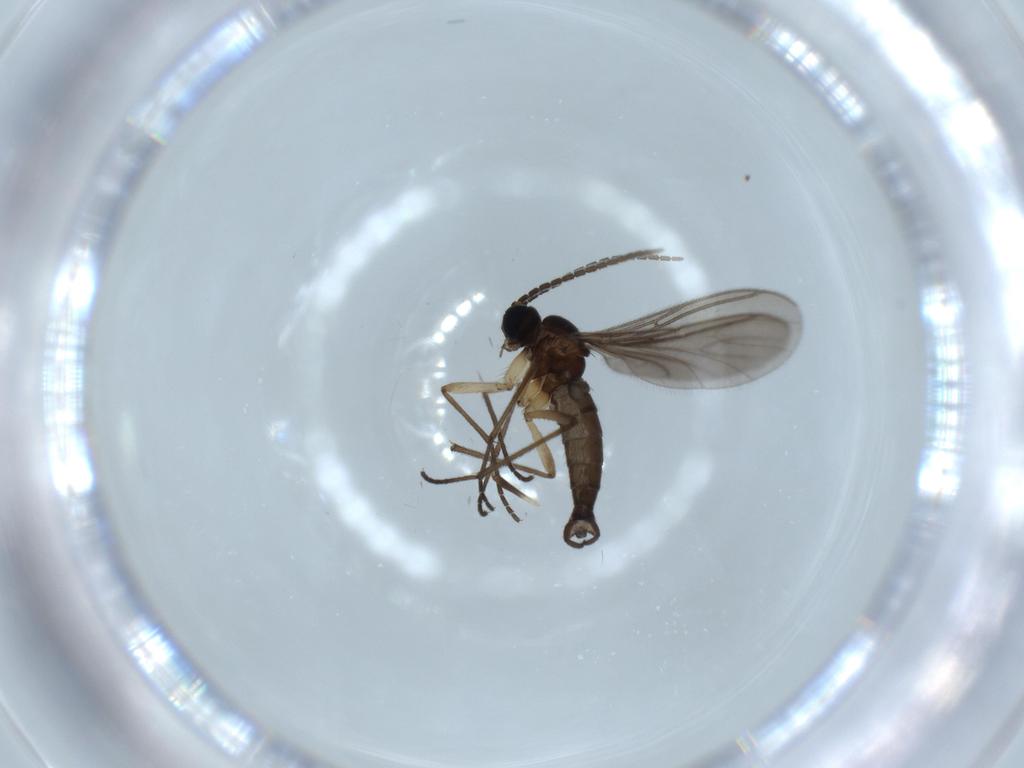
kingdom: Animalia
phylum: Arthropoda
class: Insecta
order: Diptera
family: Hybotidae
